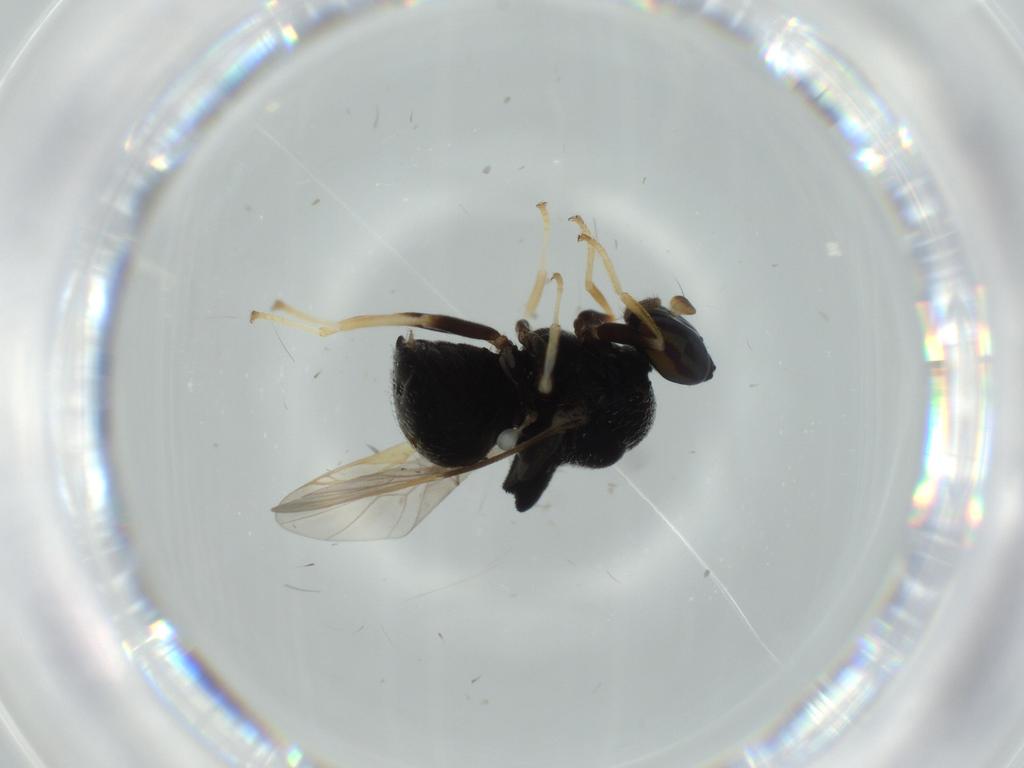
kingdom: Animalia
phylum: Arthropoda
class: Insecta
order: Diptera
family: Stratiomyidae
